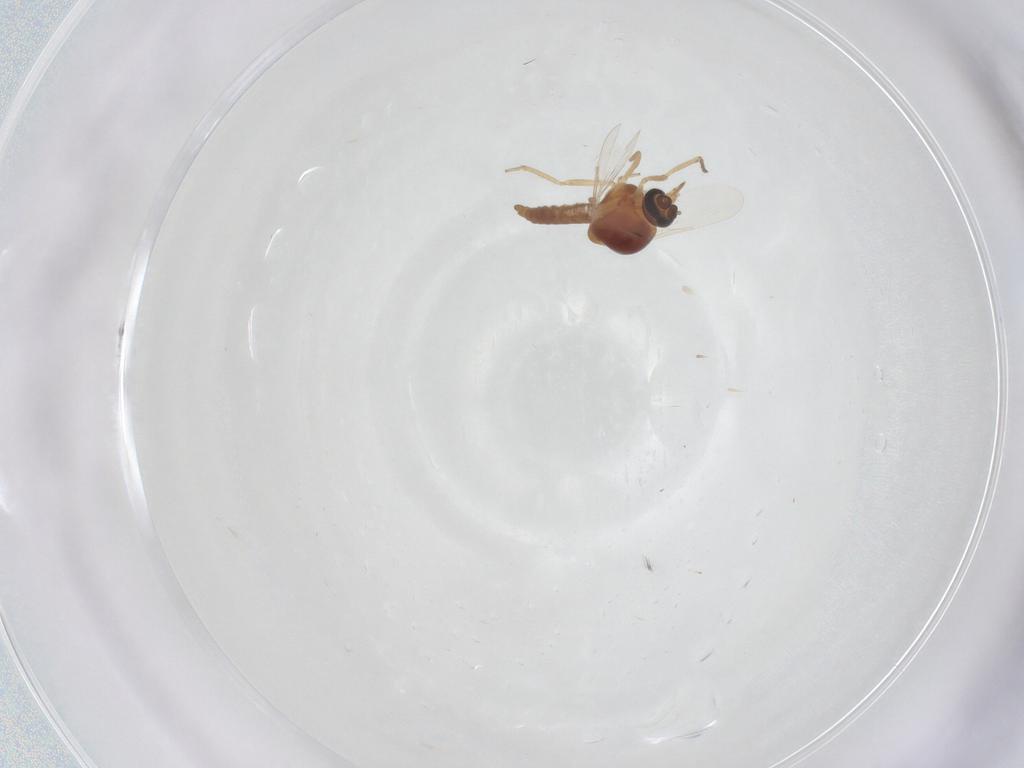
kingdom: Animalia
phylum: Arthropoda
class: Insecta
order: Diptera
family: Ceratopogonidae
